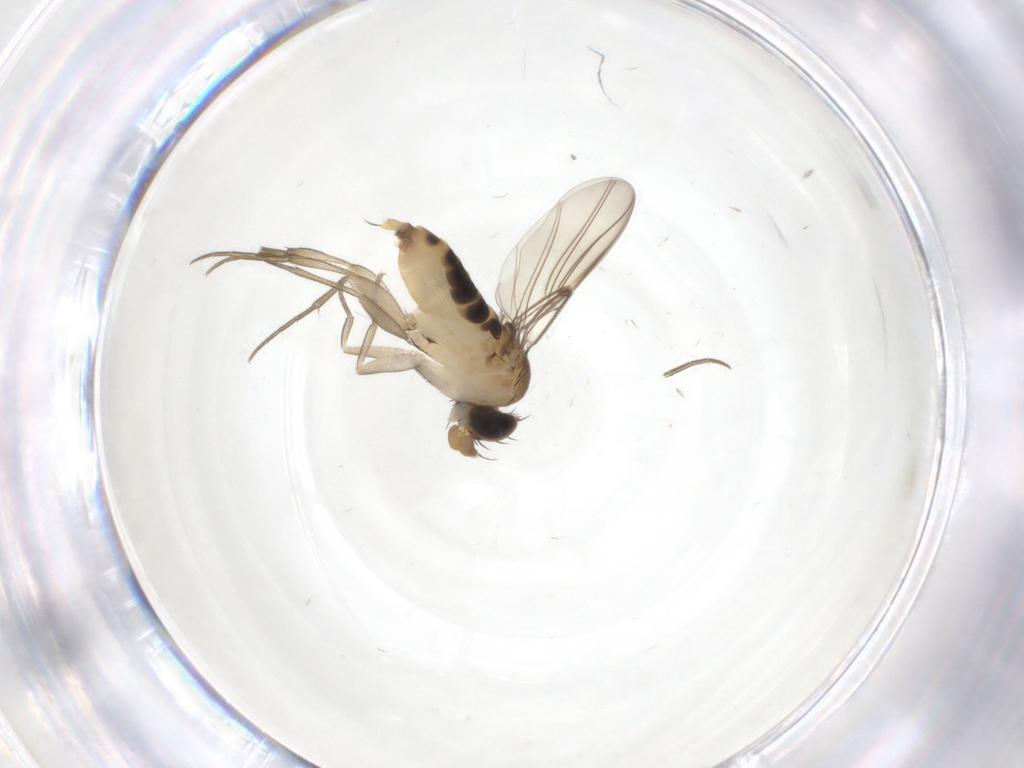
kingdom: Animalia
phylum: Arthropoda
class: Insecta
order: Diptera
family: Phoridae
